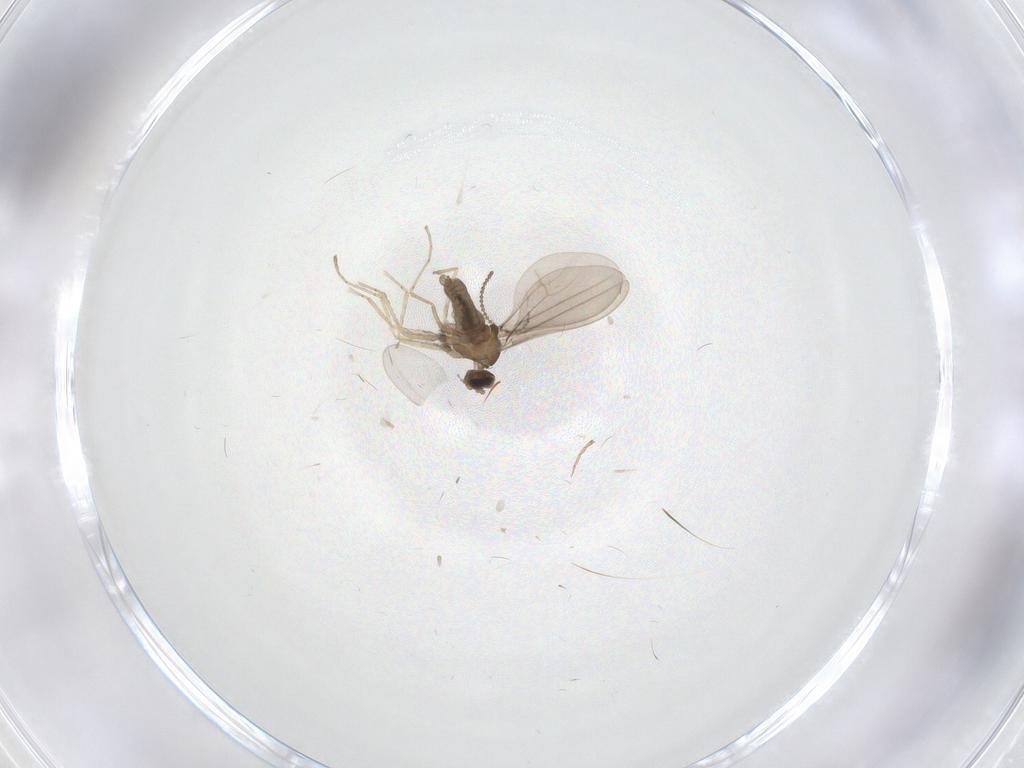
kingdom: Animalia
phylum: Arthropoda
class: Insecta
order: Diptera
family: Cecidomyiidae
